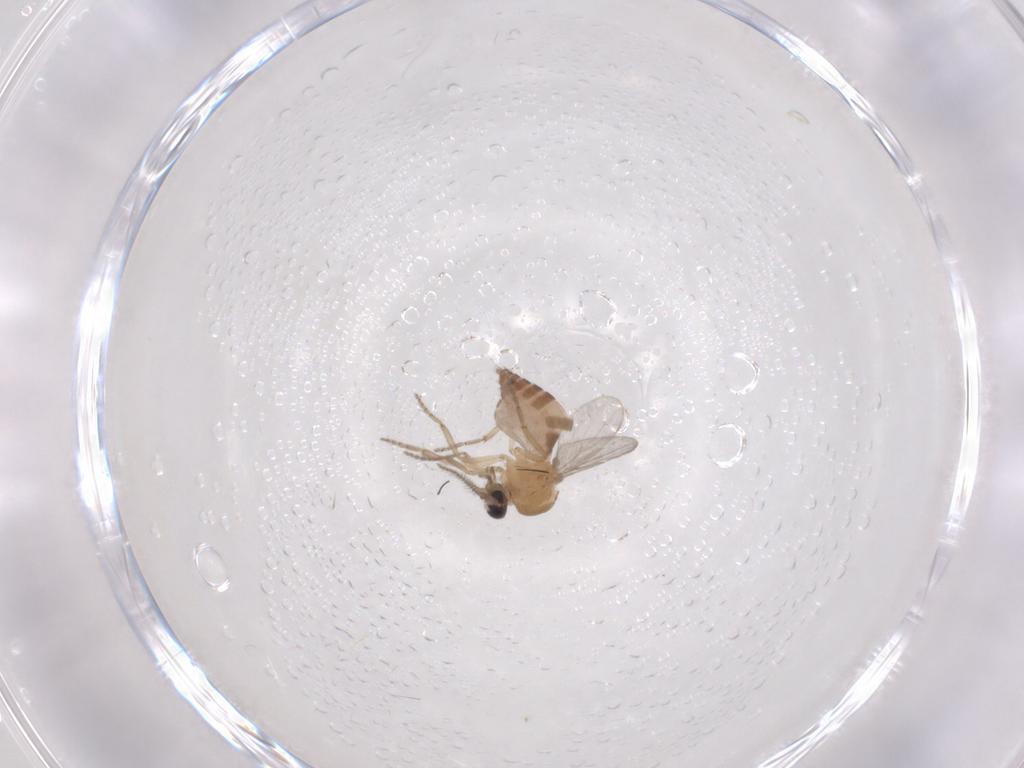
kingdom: Animalia
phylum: Arthropoda
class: Insecta
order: Diptera
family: Ceratopogonidae
